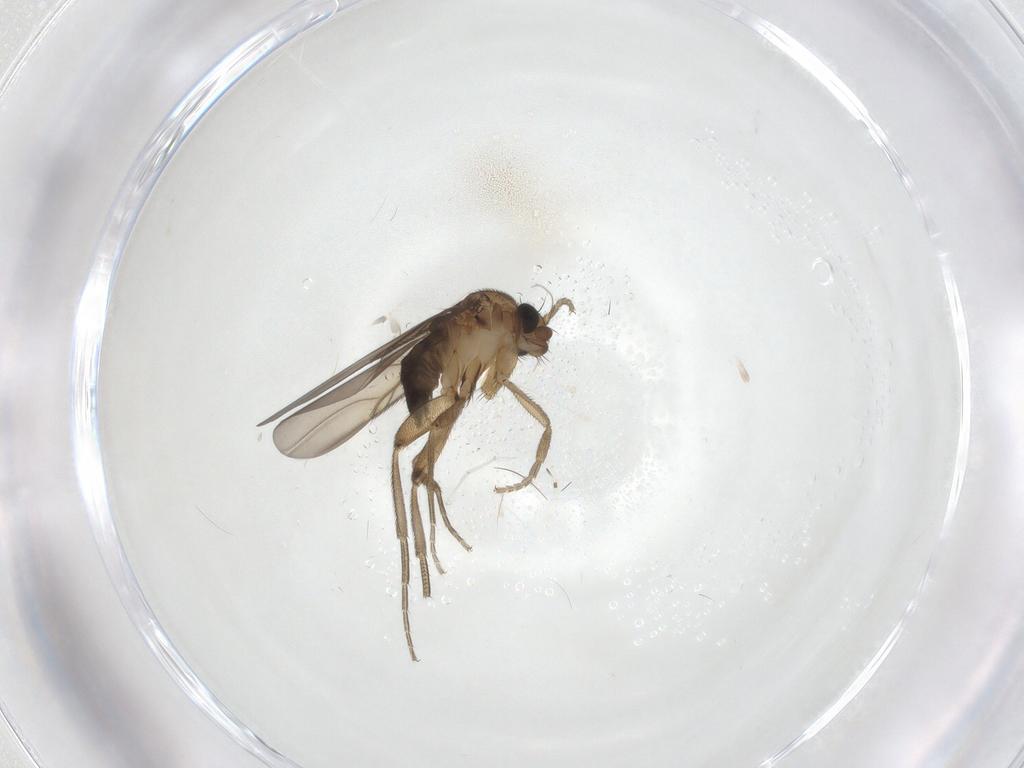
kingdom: Animalia
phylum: Arthropoda
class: Insecta
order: Diptera
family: Phoridae
